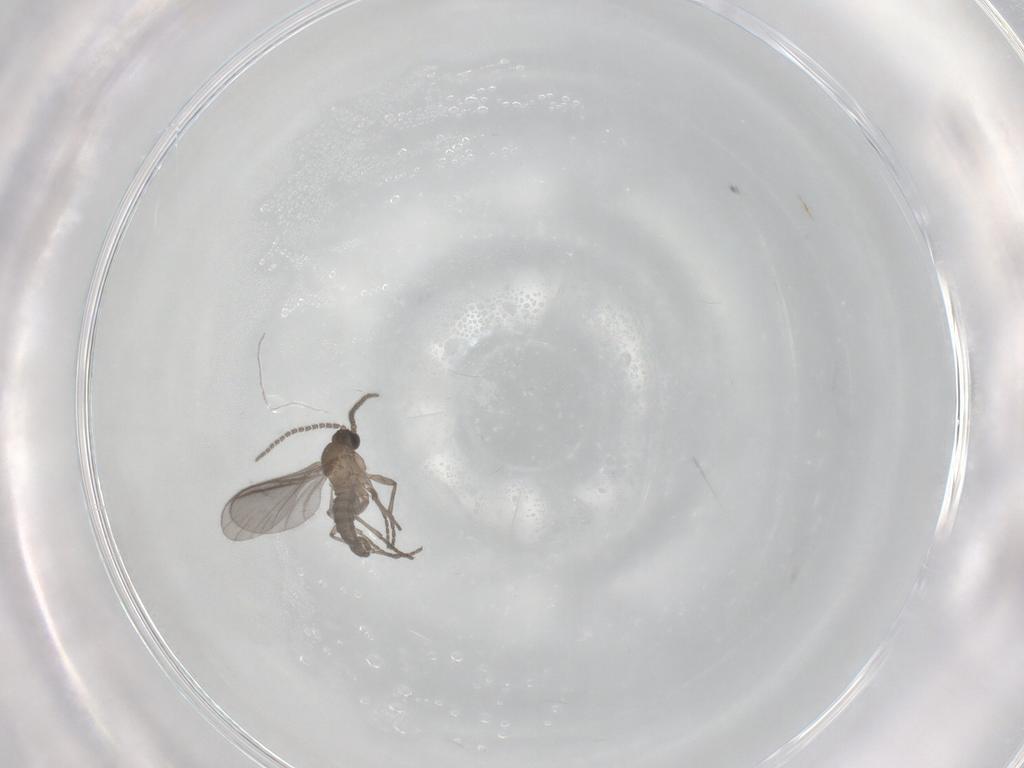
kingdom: Animalia
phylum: Arthropoda
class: Insecta
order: Diptera
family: Sciaridae
